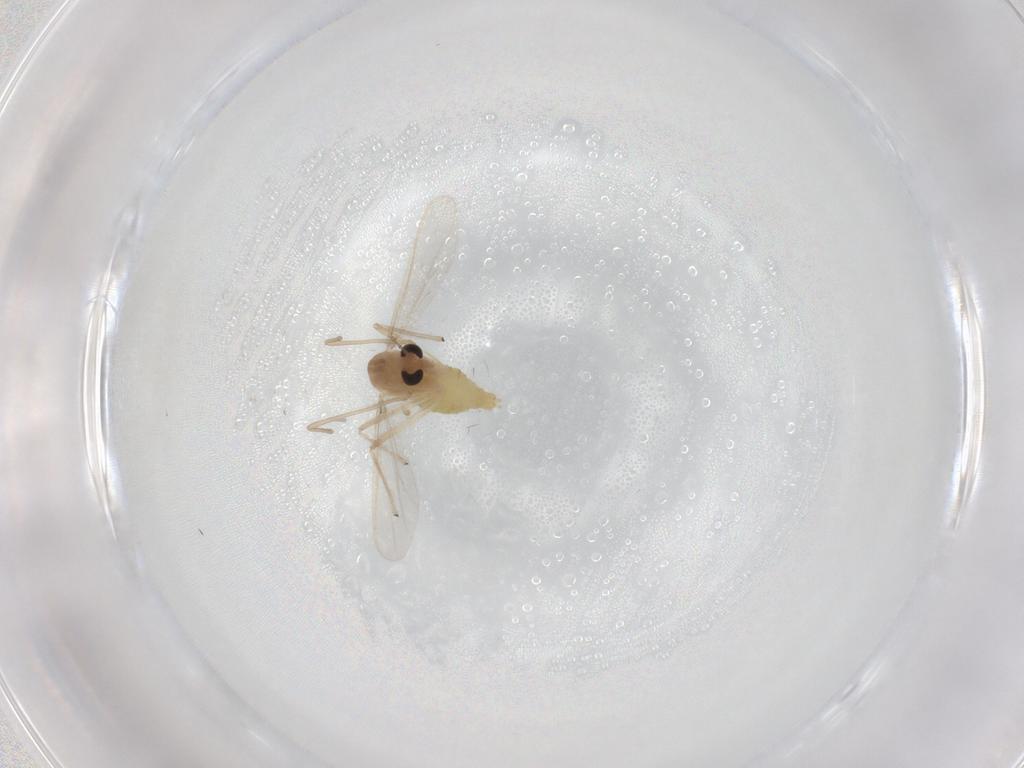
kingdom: Animalia
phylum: Arthropoda
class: Insecta
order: Diptera
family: Chironomidae
